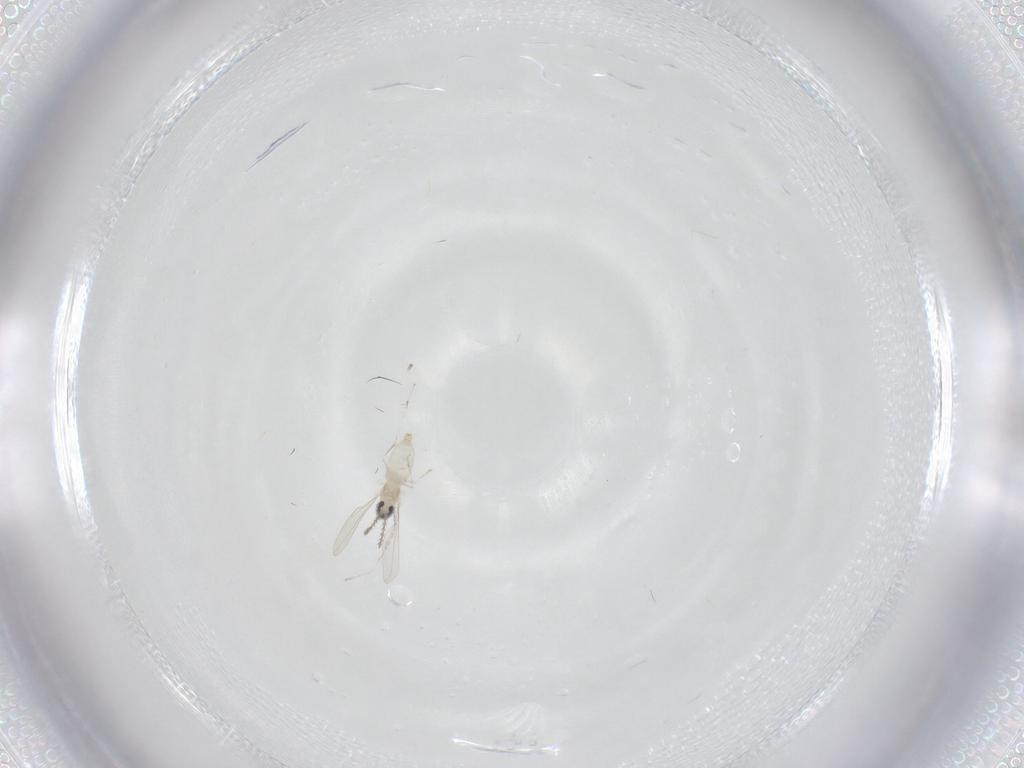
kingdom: Animalia
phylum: Arthropoda
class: Insecta
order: Diptera
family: Cecidomyiidae
